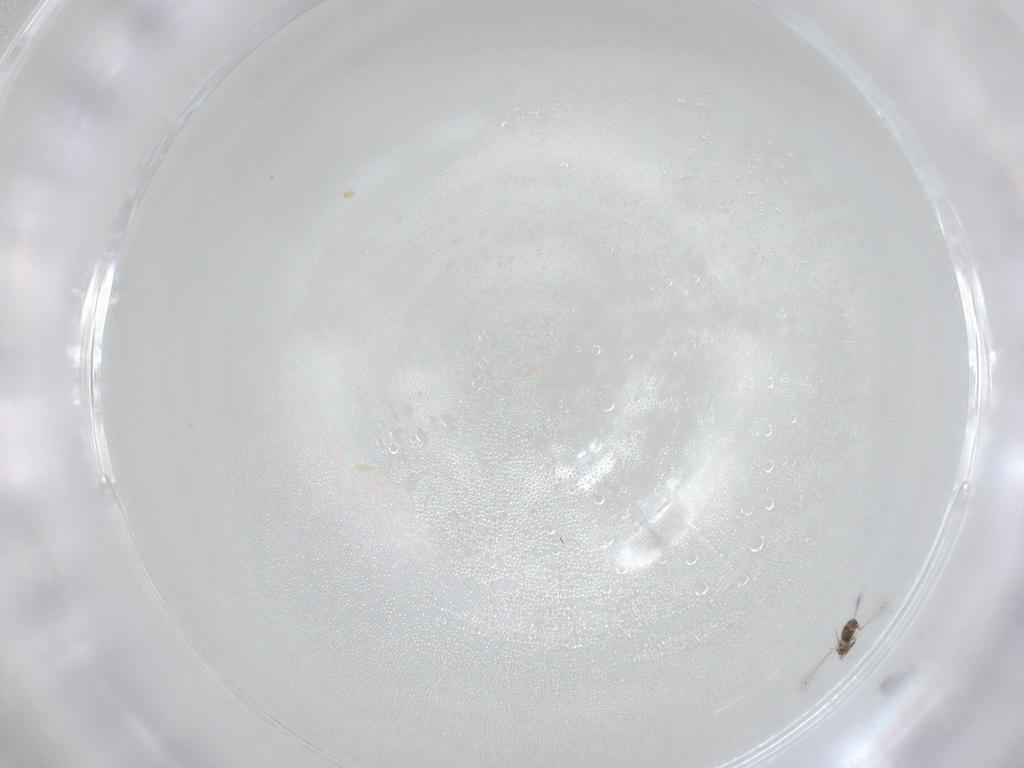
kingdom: Animalia
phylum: Arthropoda
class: Insecta
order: Hymenoptera
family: Mymaridae
